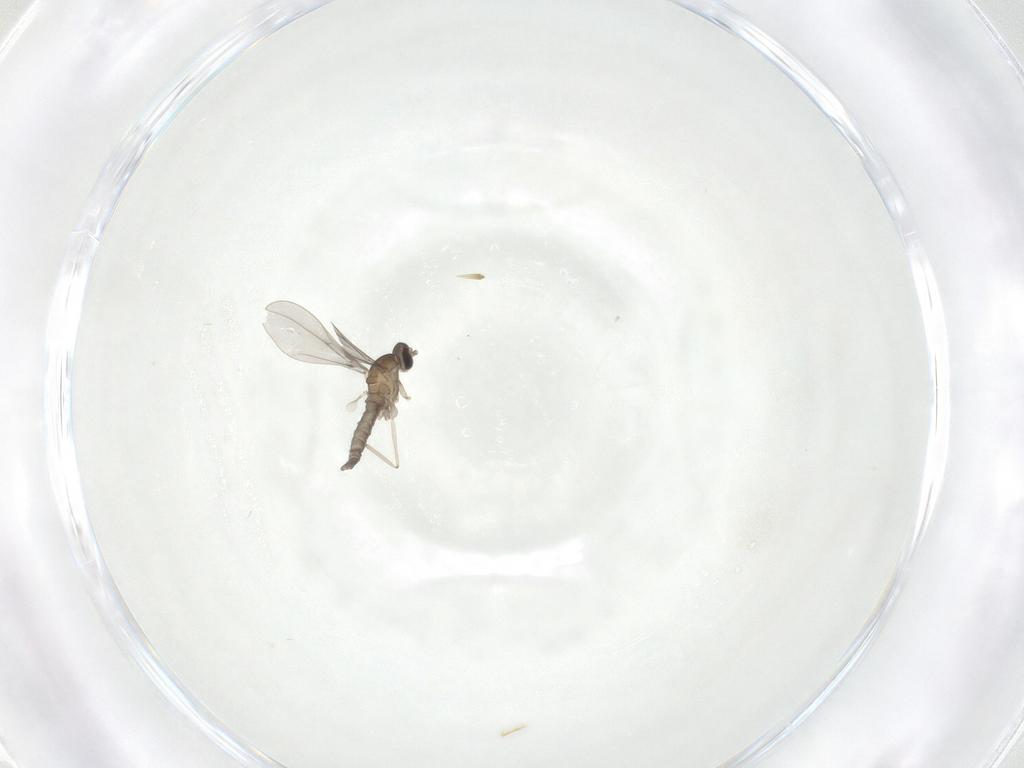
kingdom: Animalia
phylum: Arthropoda
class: Insecta
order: Diptera
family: Cecidomyiidae
